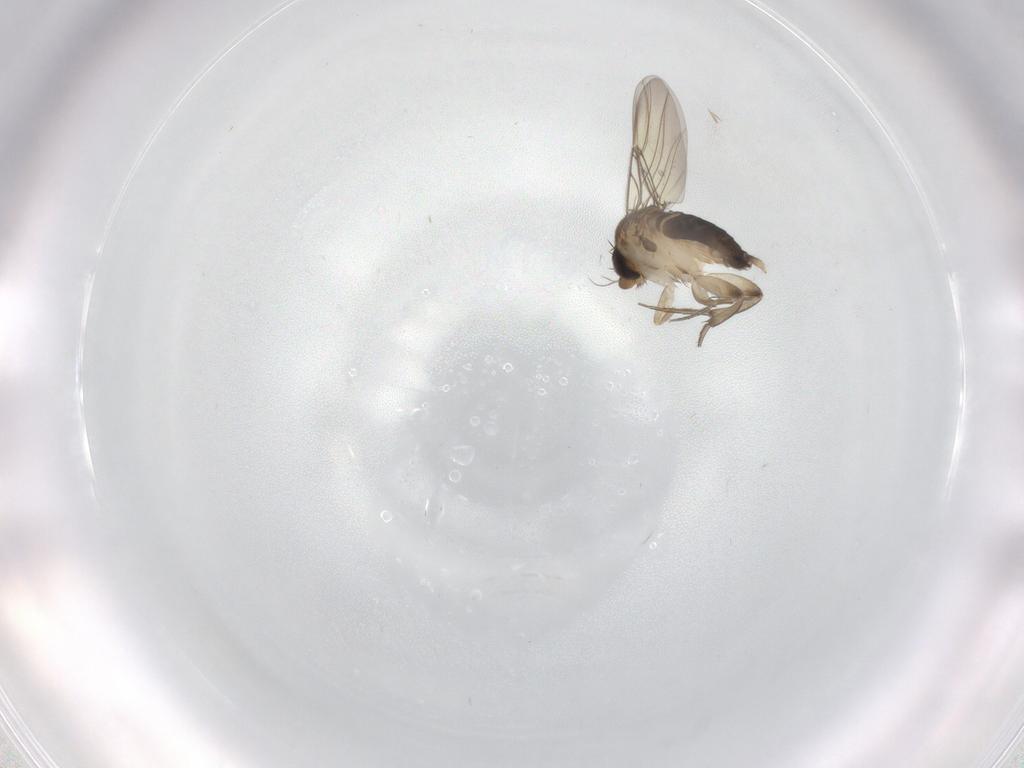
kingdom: Animalia
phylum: Arthropoda
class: Insecta
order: Diptera
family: Phoridae
